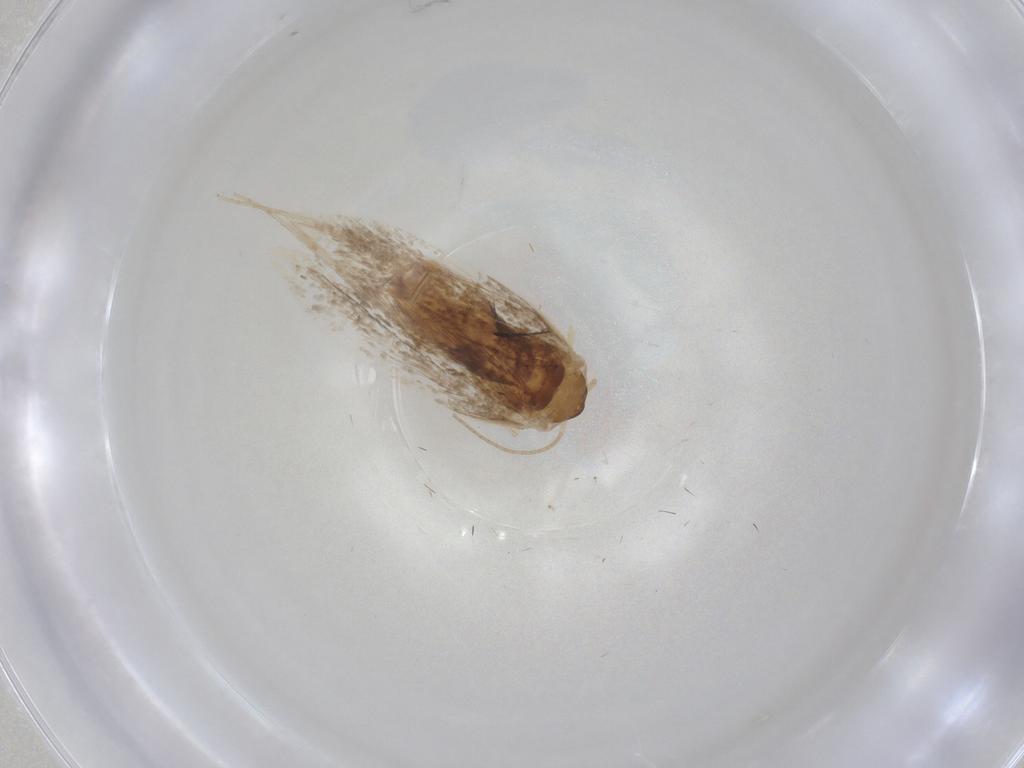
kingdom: Animalia
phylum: Arthropoda
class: Insecta
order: Lepidoptera
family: Dryadaulidae
